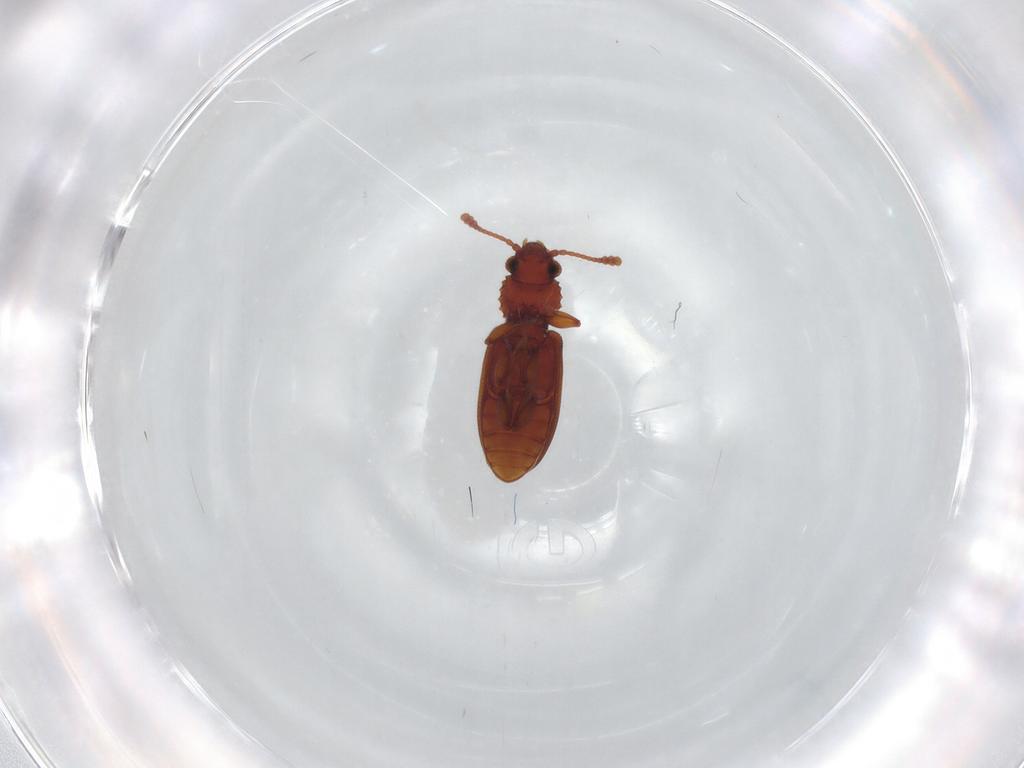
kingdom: Animalia
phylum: Arthropoda
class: Insecta
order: Coleoptera
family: Silvanidae
